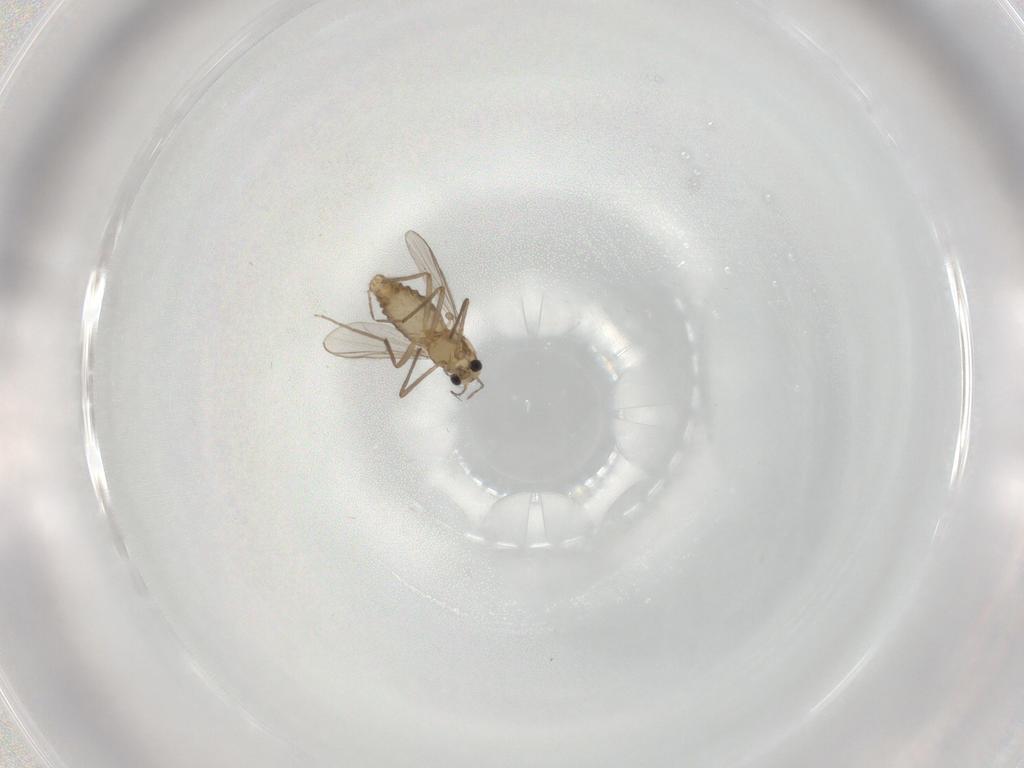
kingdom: Animalia
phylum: Arthropoda
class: Insecta
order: Diptera
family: Chironomidae
